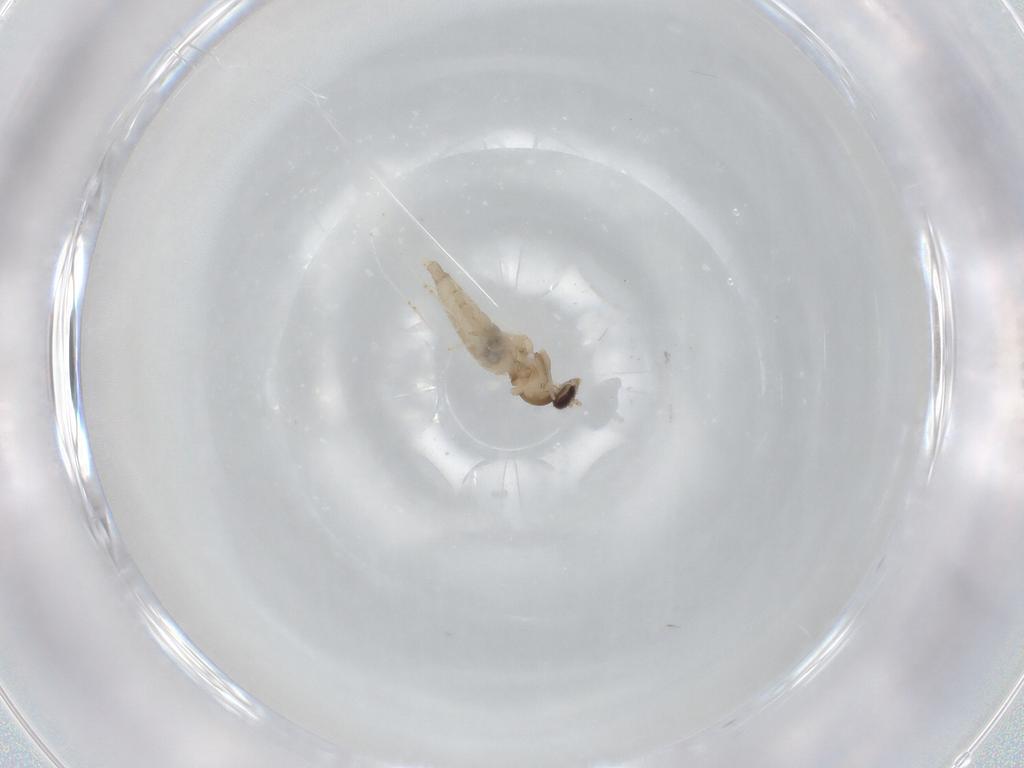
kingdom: Animalia
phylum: Arthropoda
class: Insecta
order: Diptera
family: Cecidomyiidae
